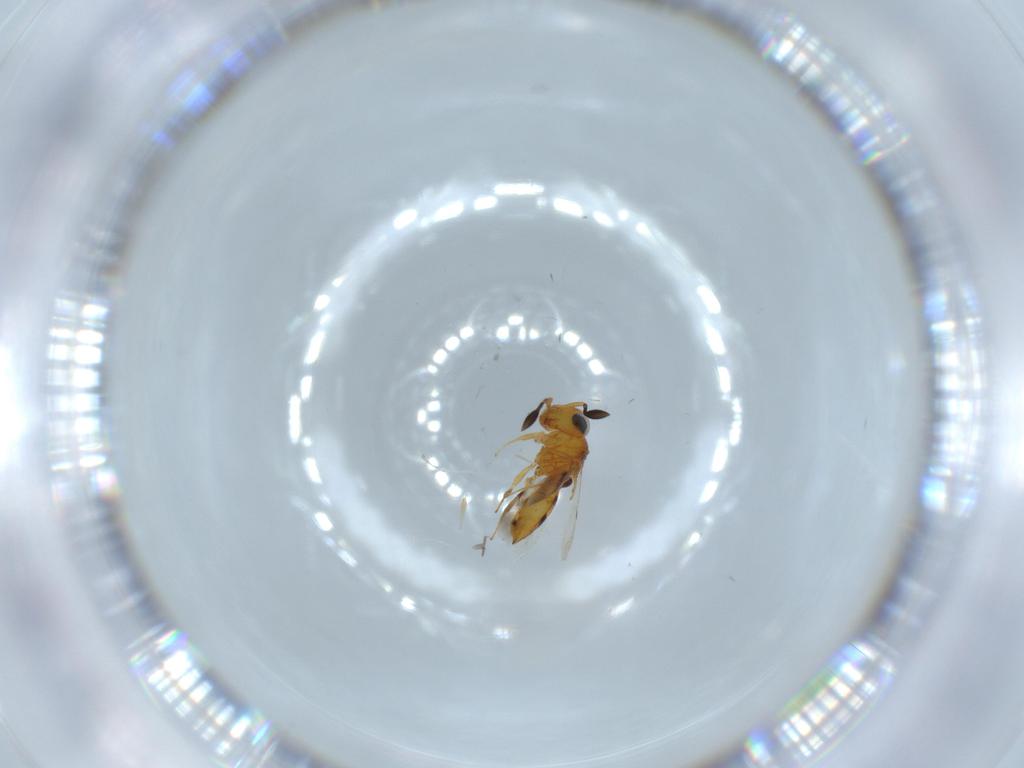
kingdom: Animalia
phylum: Arthropoda
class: Insecta
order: Hymenoptera
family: Scelionidae
